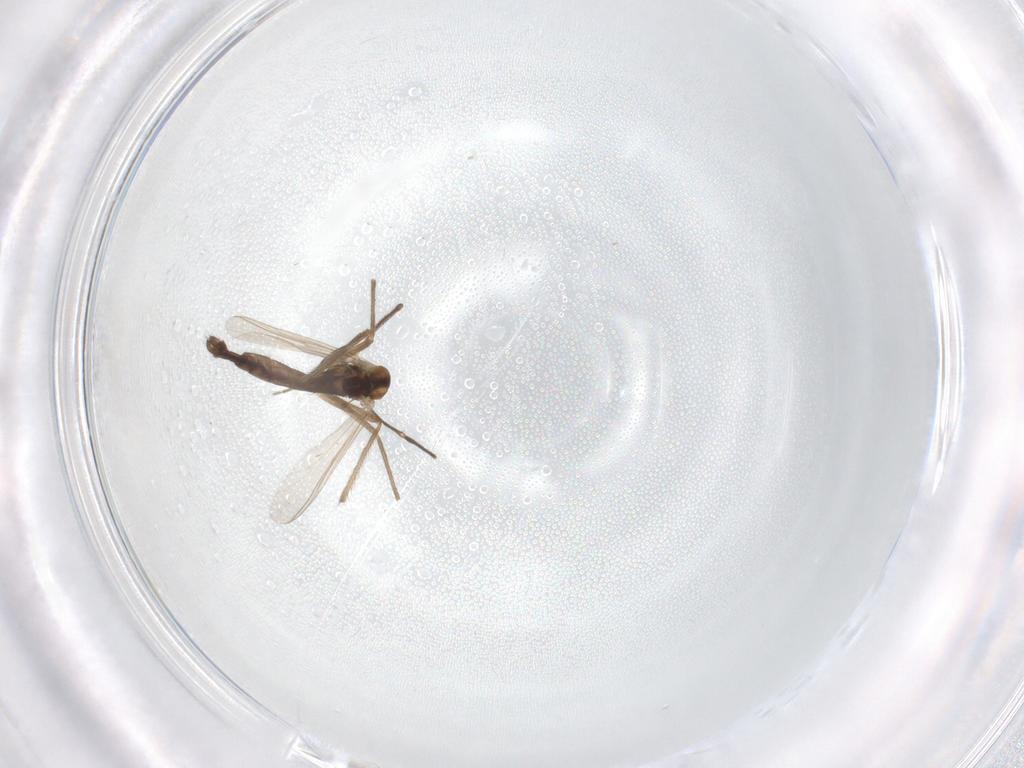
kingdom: Animalia
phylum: Arthropoda
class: Insecta
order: Diptera
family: Chironomidae
